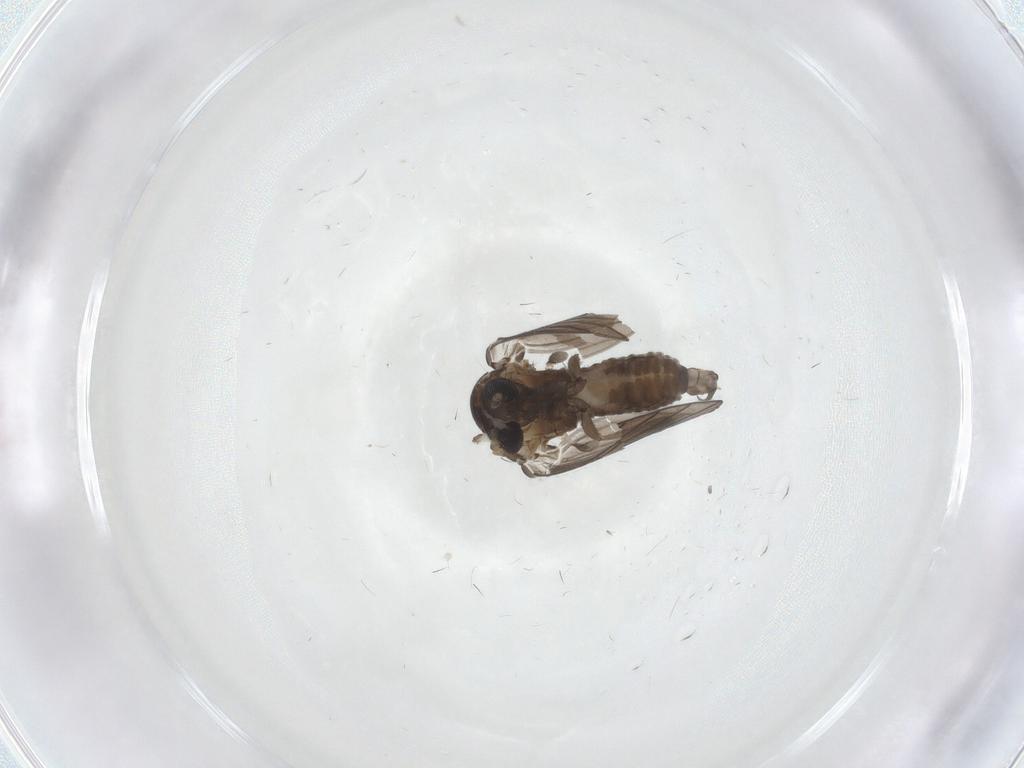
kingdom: Animalia
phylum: Arthropoda
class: Insecta
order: Diptera
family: Psychodidae
